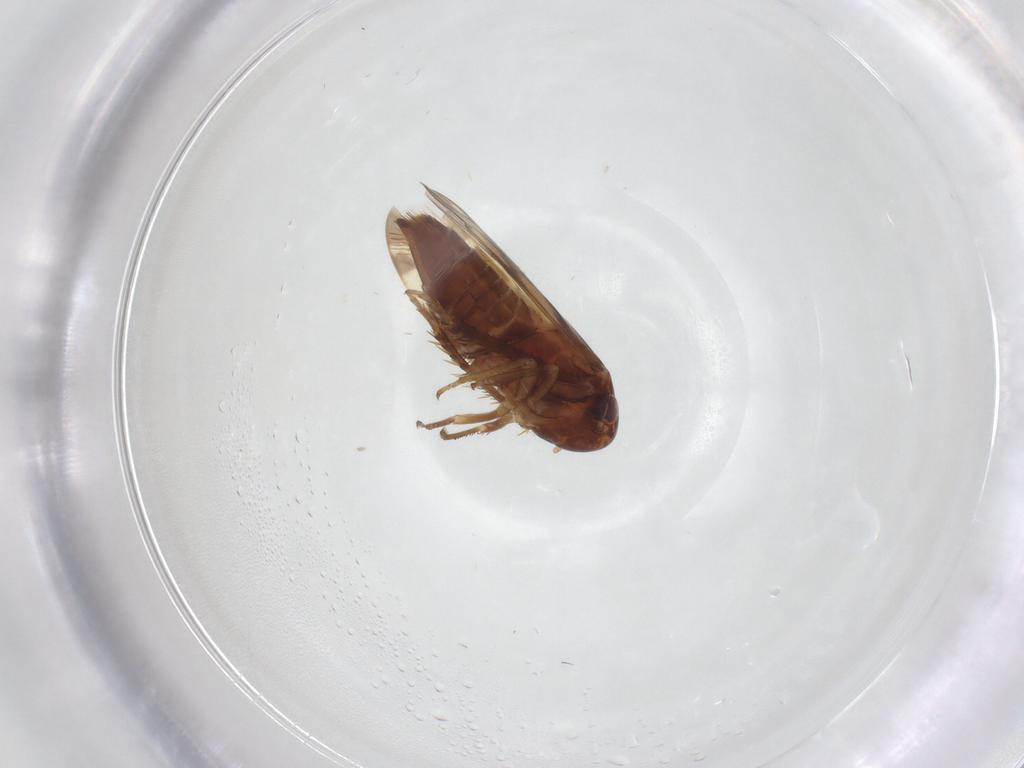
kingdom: Animalia
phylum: Arthropoda
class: Insecta
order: Hemiptera
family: Cicadellidae
